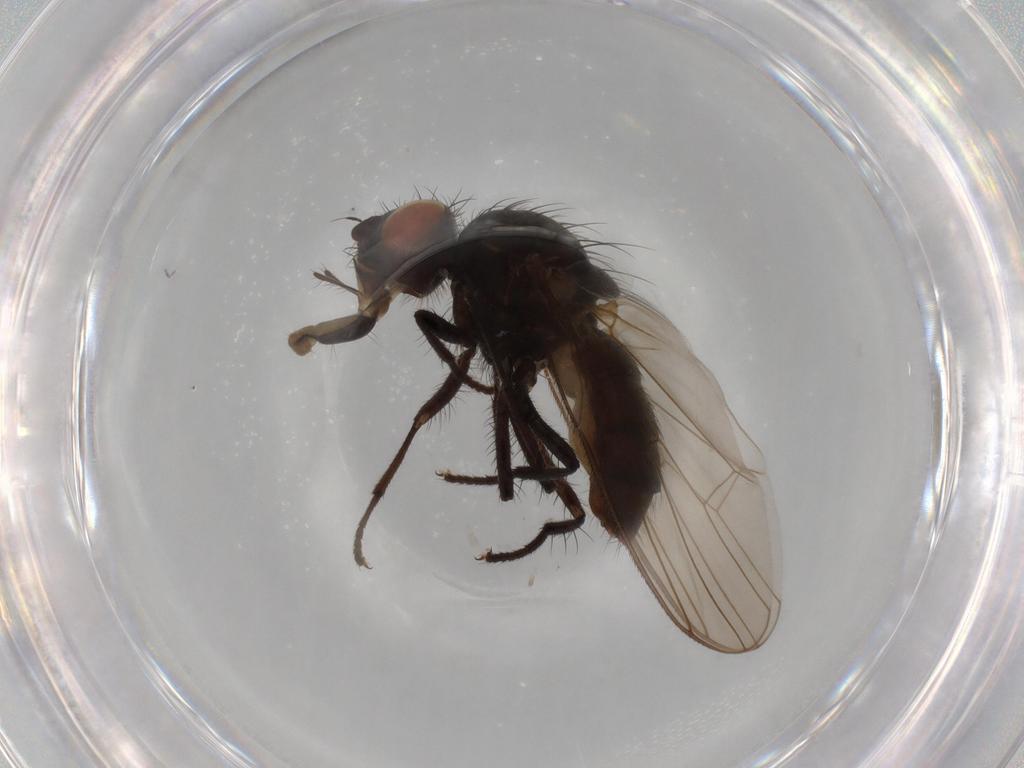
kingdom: Animalia
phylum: Arthropoda
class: Insecta
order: Diptera
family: Anthomyiidae
